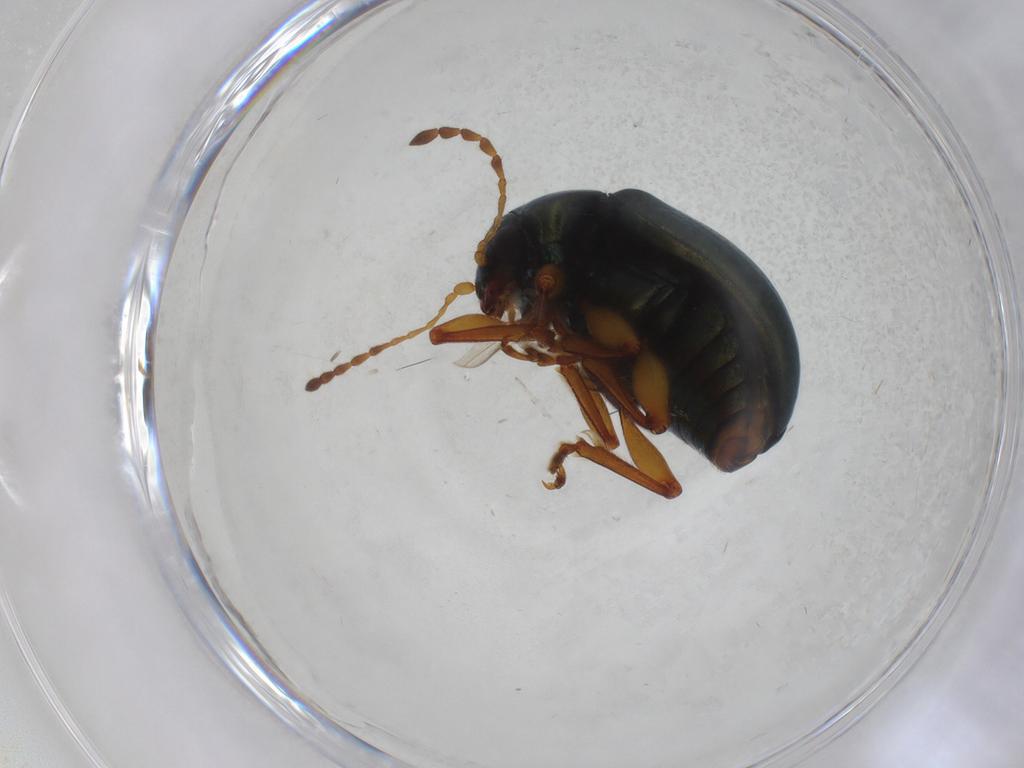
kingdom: Animalia
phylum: Arthropoda
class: Insecta
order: Coleoptera
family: Chrysomelidae
